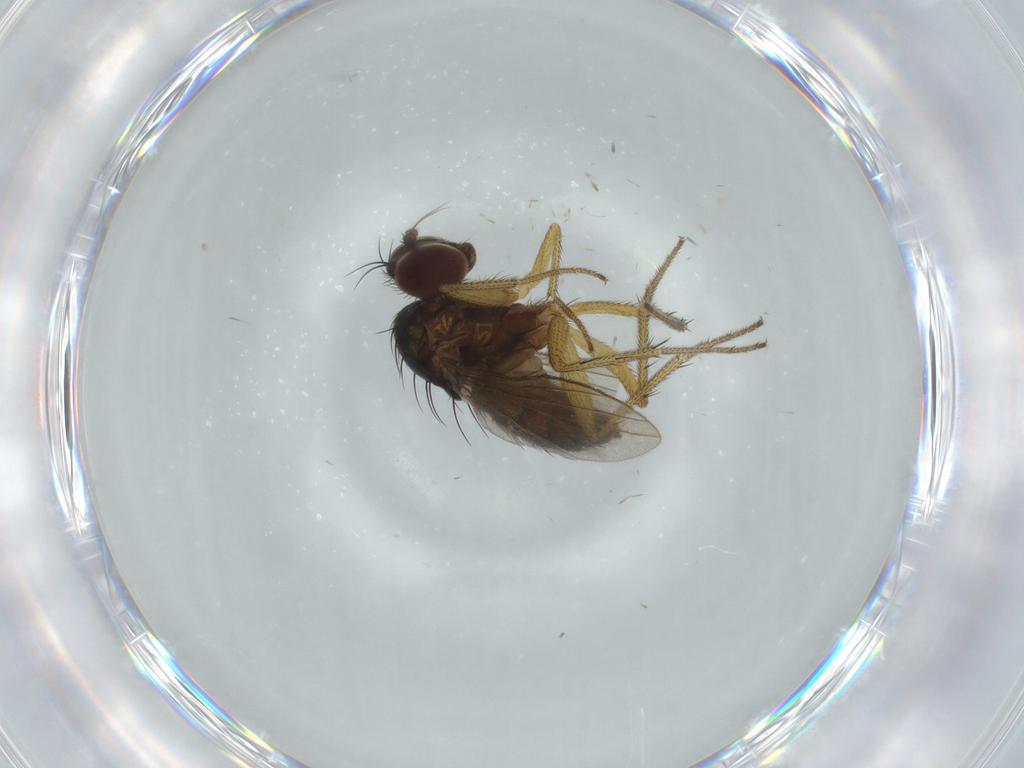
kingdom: Animalia
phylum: Arthropoda
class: Insecta
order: Diptera
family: Dolichopodidae
